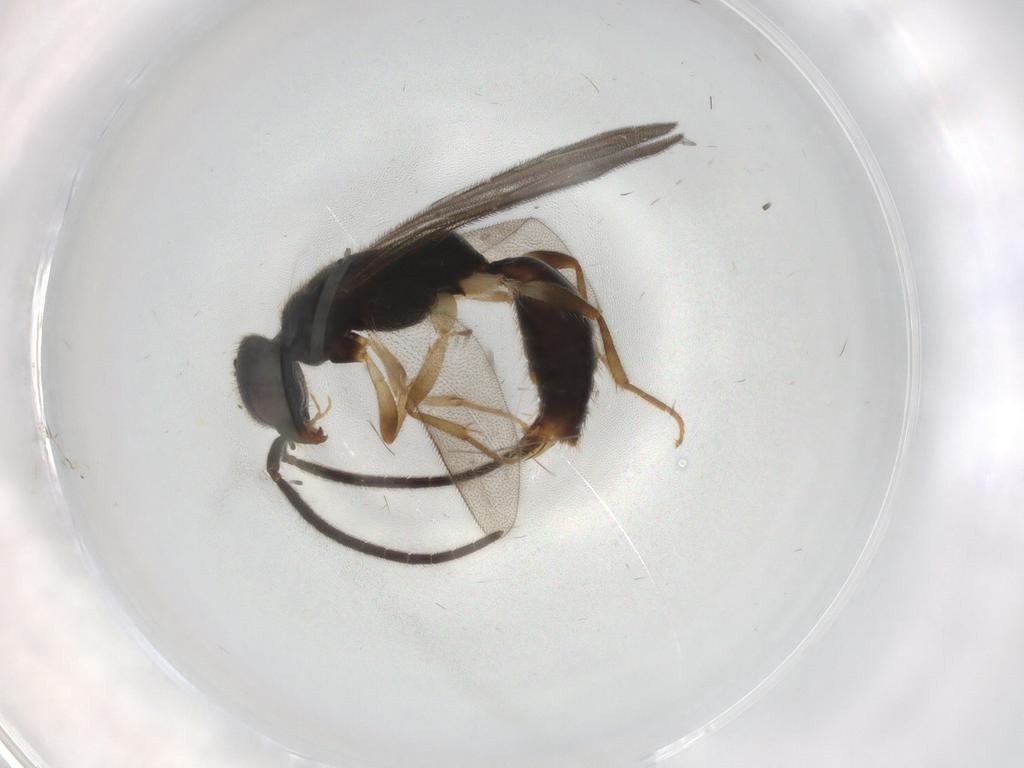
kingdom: Animalia
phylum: Arthropoda
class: Insecta
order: Hymenoptera
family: Bethylidae
